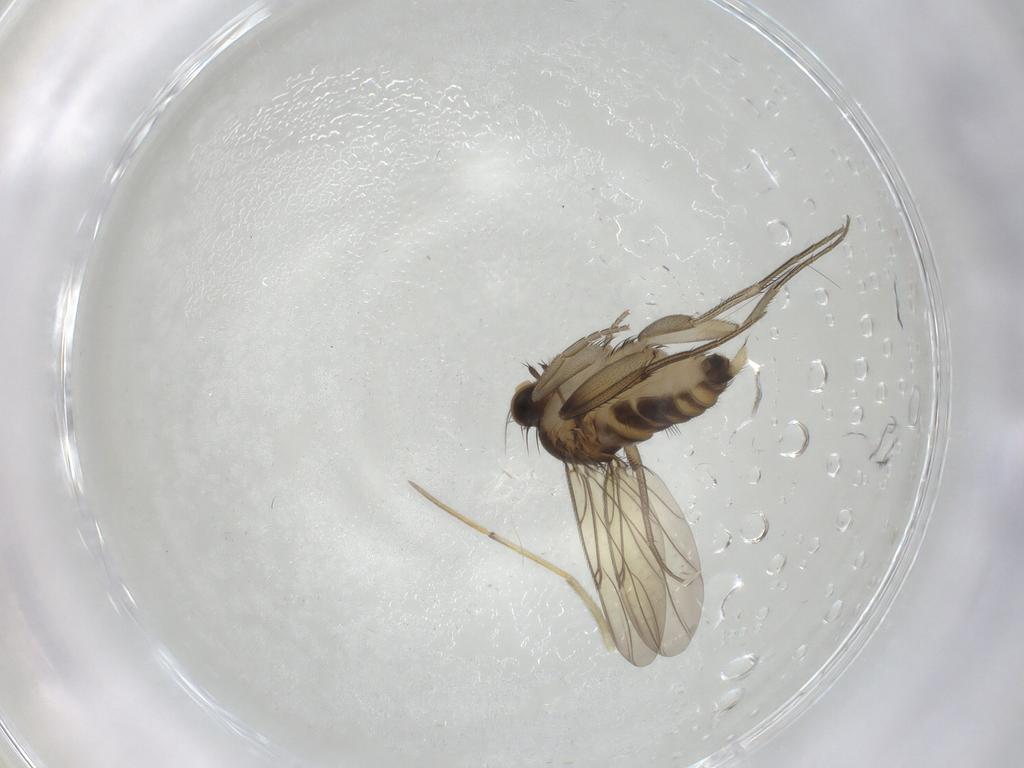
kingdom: Animalia
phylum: Arthropoda
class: Insecta
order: Diptera
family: Phoridae
